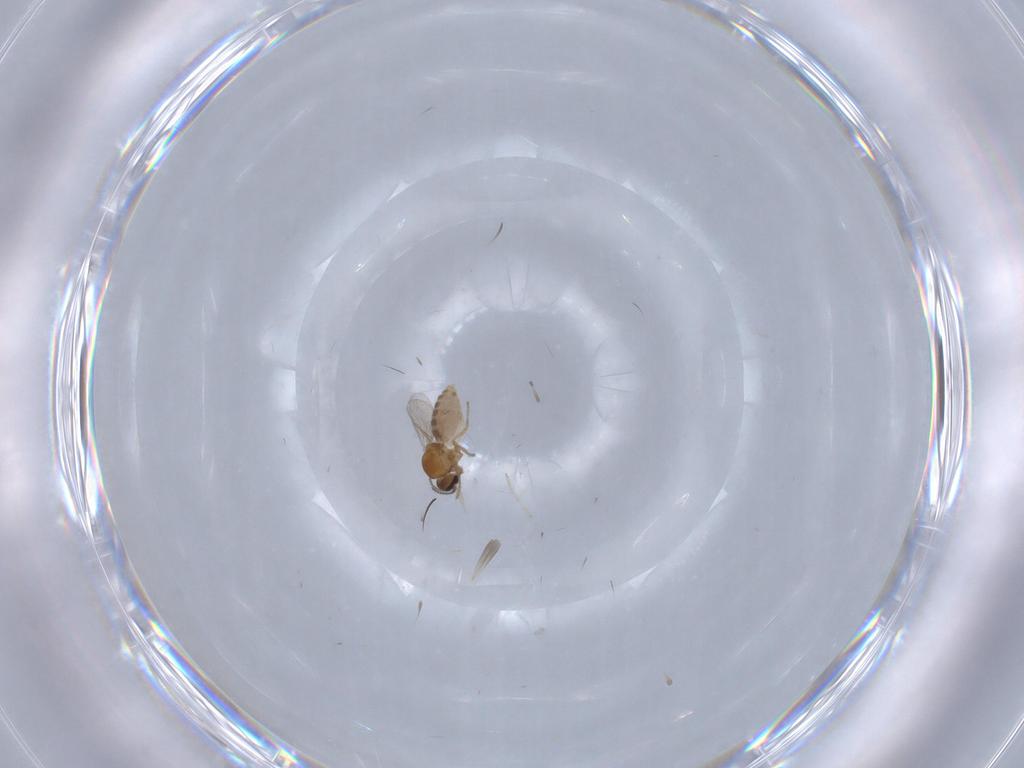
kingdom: Animalia
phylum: Arthropoda
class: Insecta
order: Diptera
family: Ceratopogonidae
